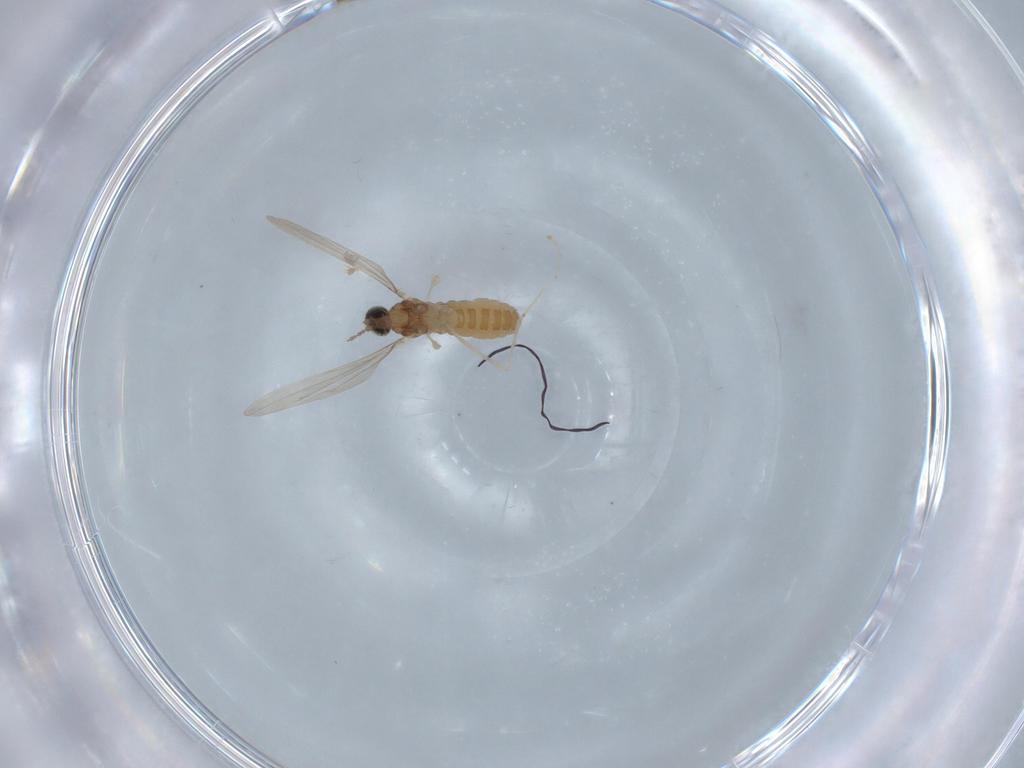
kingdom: Animalia
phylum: Arthropoda
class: Insecta
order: Diptera
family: Cecidomyiidae
